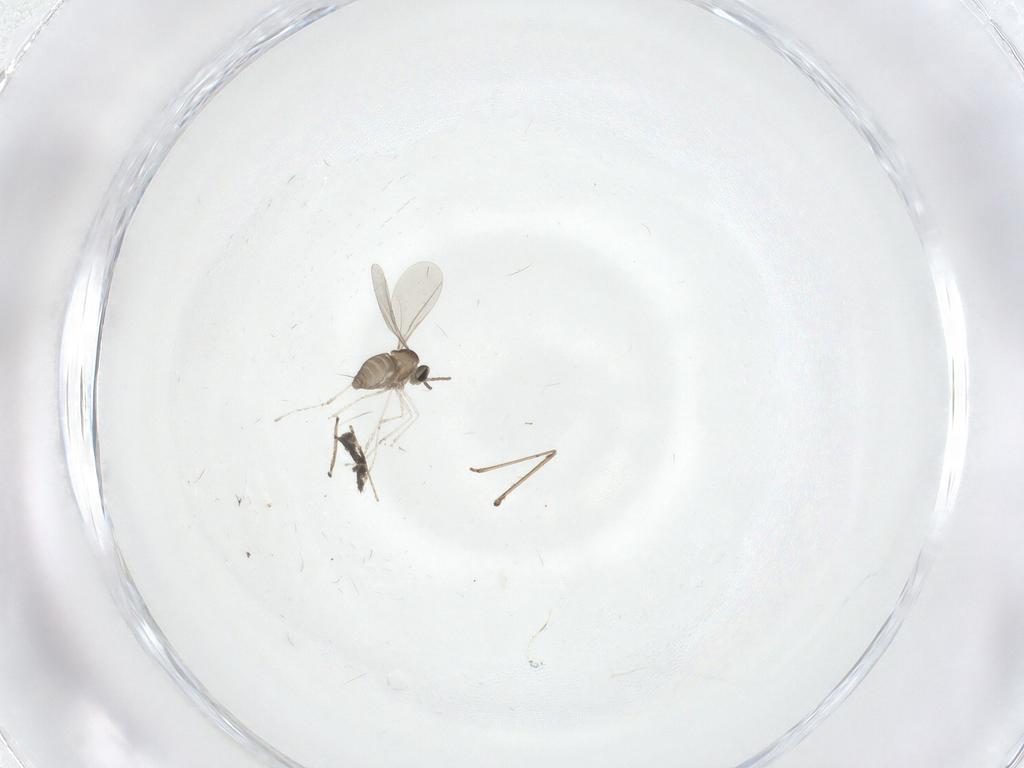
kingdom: Animalia
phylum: Arthropoda
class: Insecta
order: Diptera
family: Cecidomyiidae
